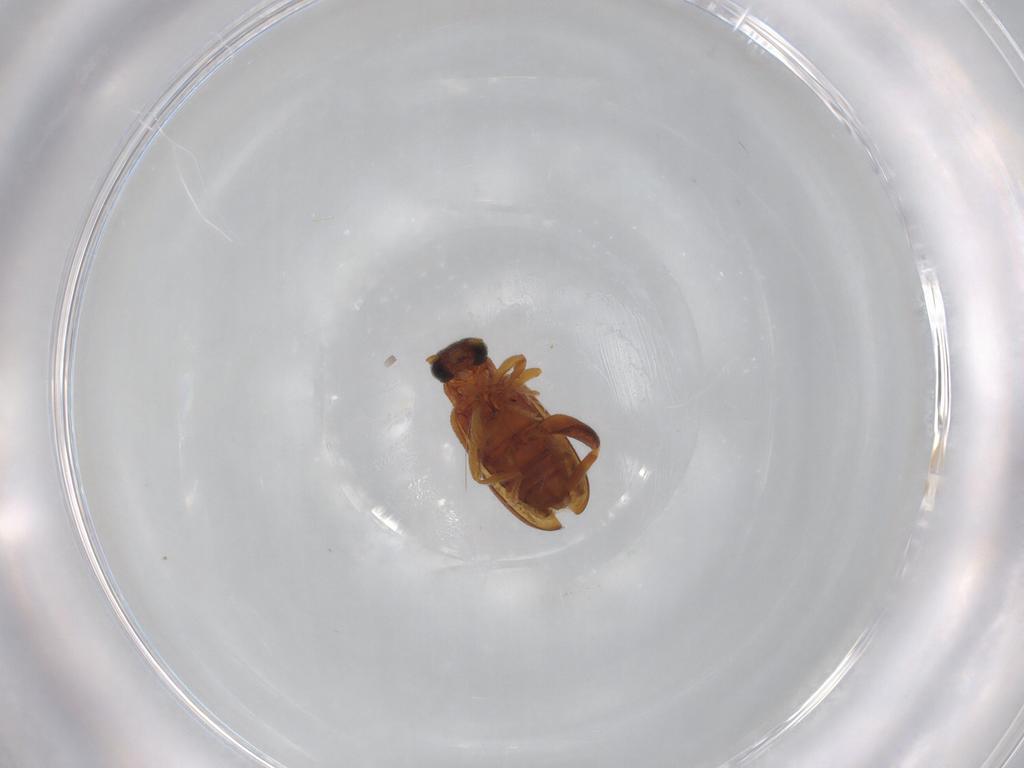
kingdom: Animalia
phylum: Arthropoda
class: Insecta
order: Coleoptera
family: Aderidae
